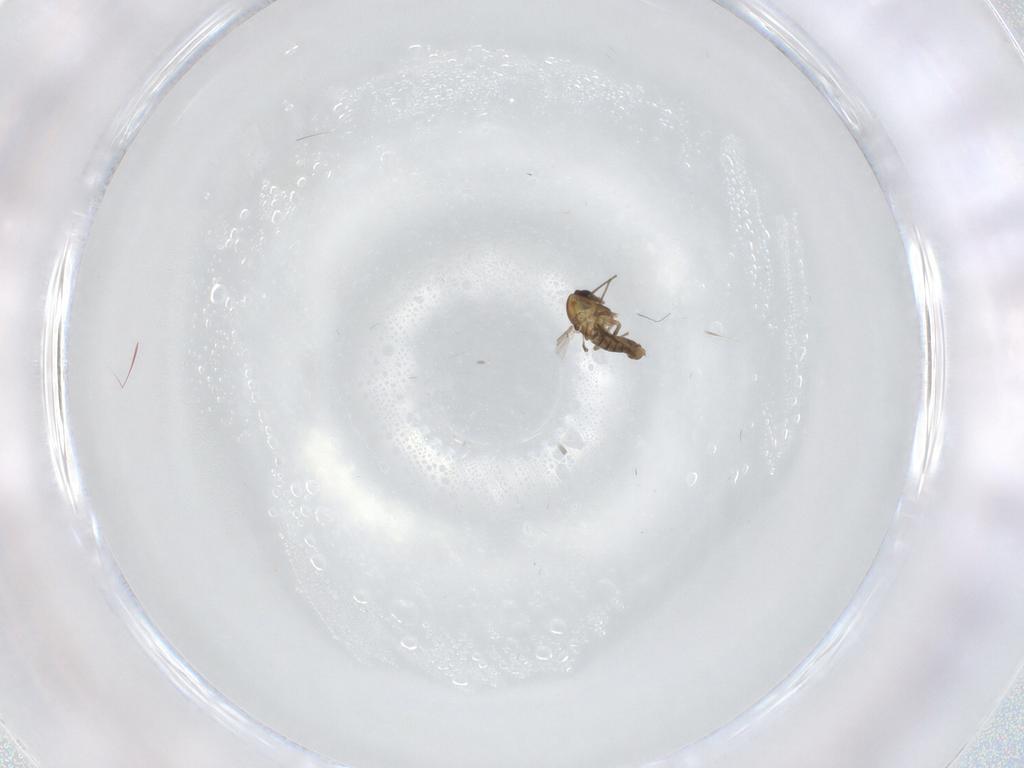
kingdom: Animalia
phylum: Arthropoda
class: Insecta
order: Diptera
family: Chironomidae
